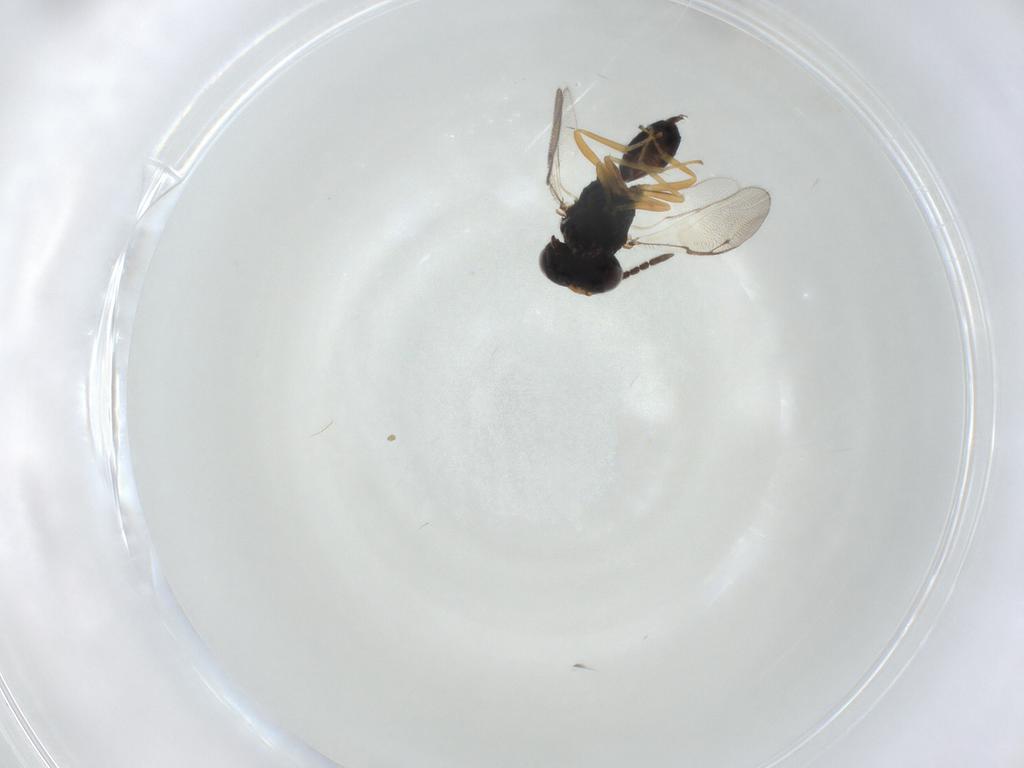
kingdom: Animalia
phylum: Arthropoda
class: Insecta
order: Hymenoptera
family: Pteromalidae
